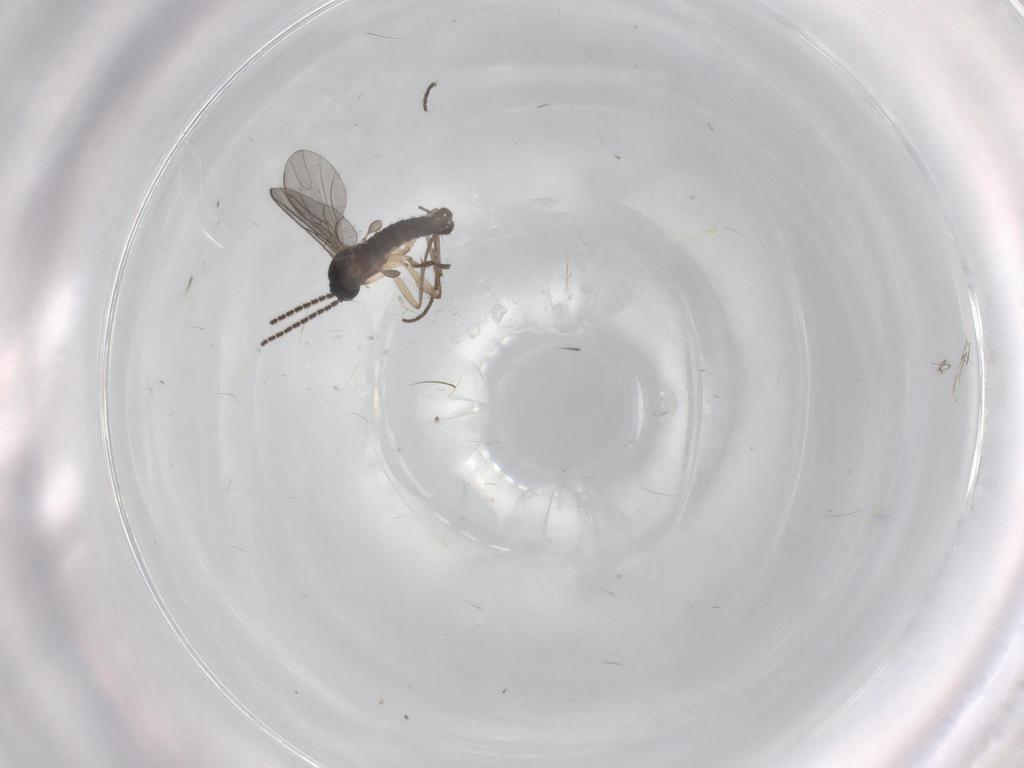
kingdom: Animalia
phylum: Arthropoda
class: Insecta
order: Diptera
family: Sciaridae
